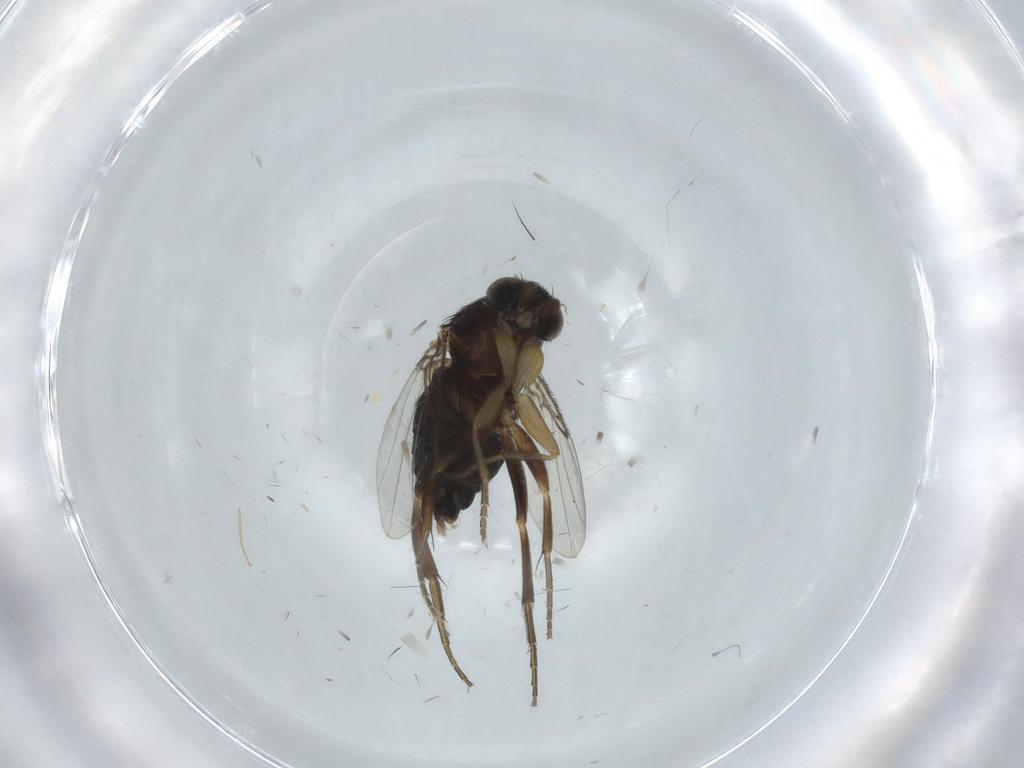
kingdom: Animalia
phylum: Arthropoda
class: Insecta
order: Diptera
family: Phoridae
